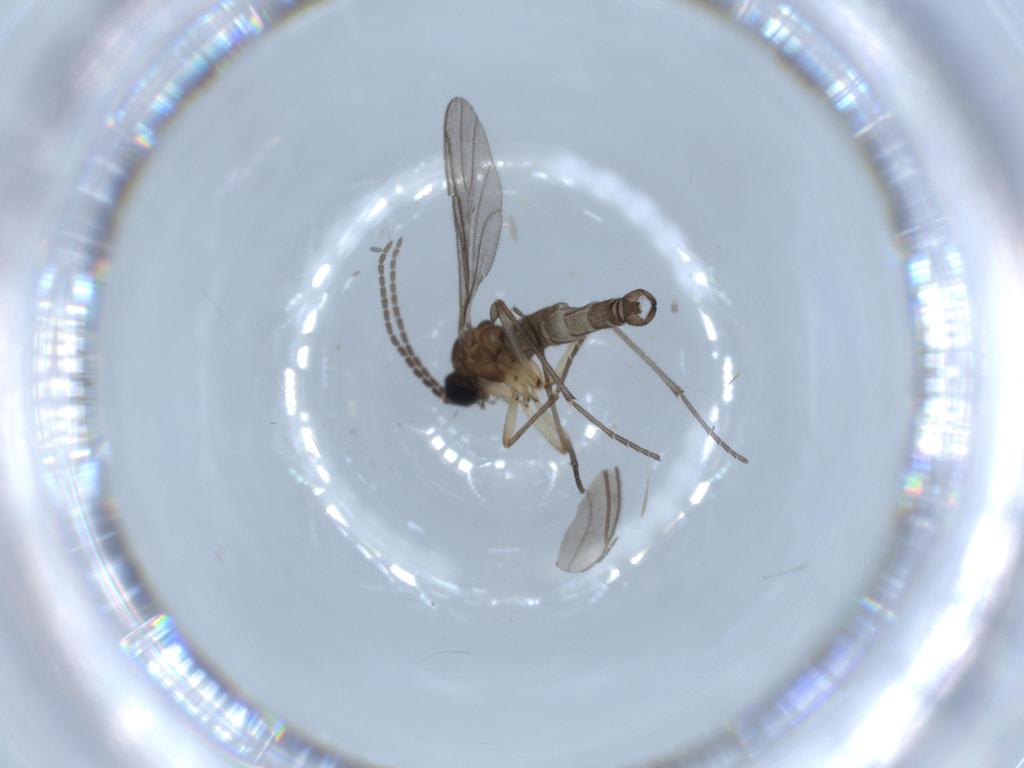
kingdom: Animalia
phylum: Arthropoda
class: Insecta
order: Diptera
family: Sciaridae
